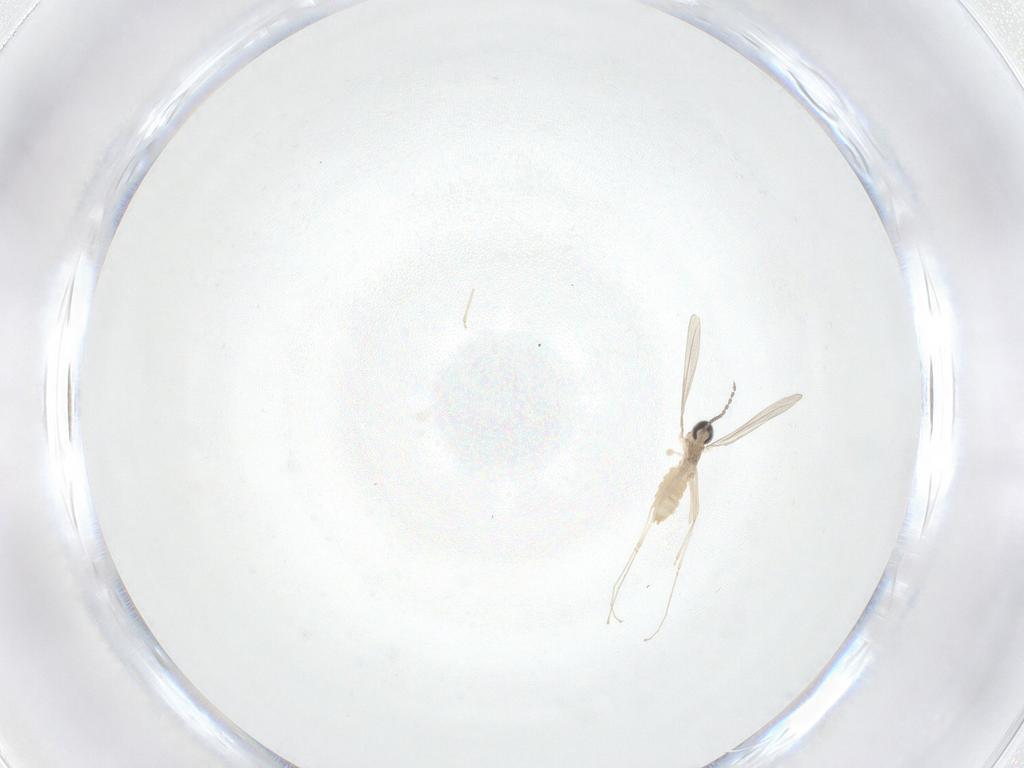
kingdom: Animalia
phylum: Arthropoda
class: Insecta
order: Diptera
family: Cecidomyiidae
